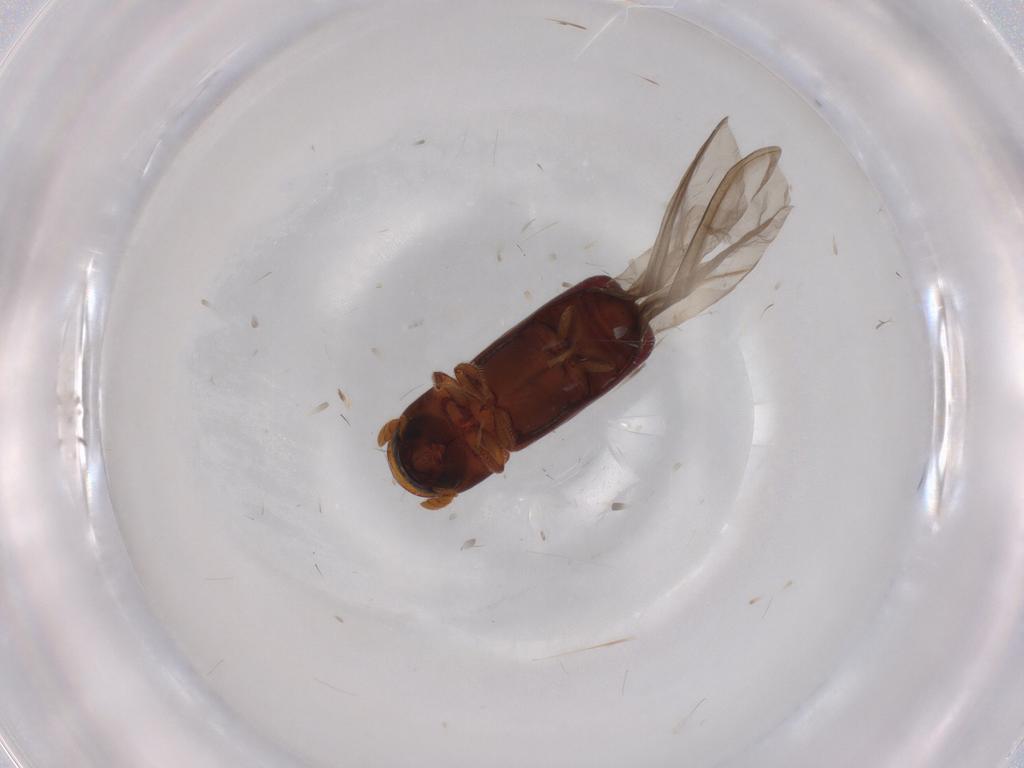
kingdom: Animalia
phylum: Arthropoda
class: Insecta
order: Coleoptera
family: Curculionidae
